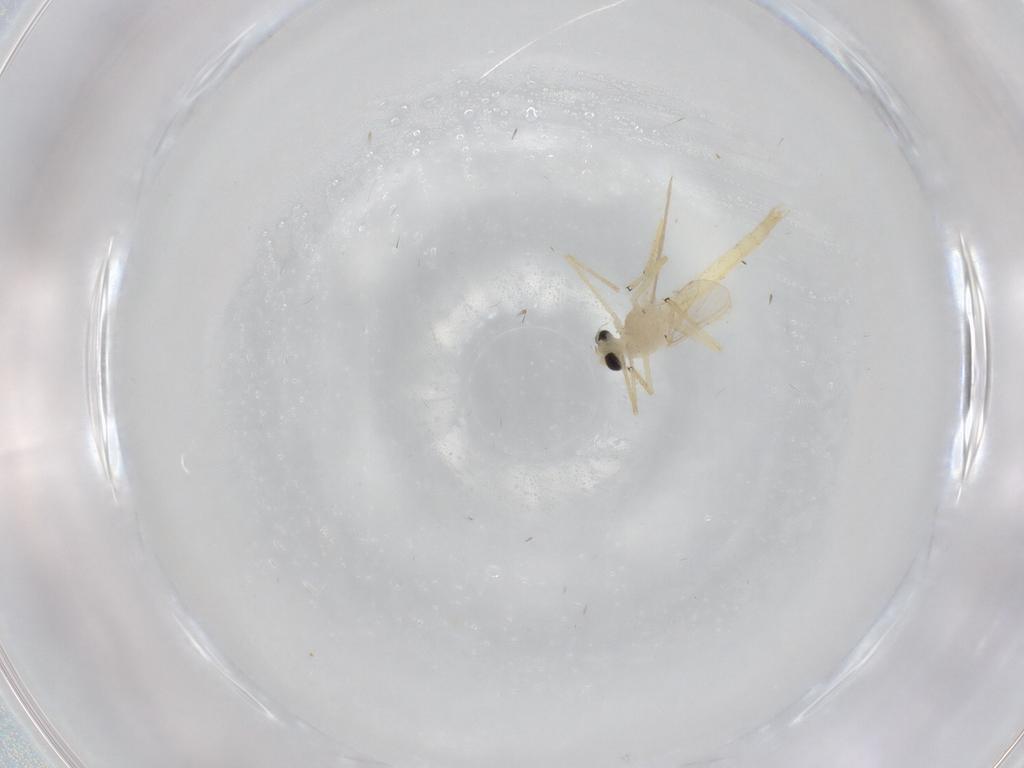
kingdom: Animalia
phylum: Arthropoda
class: Insecta
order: Diptera
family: Chironomidae
